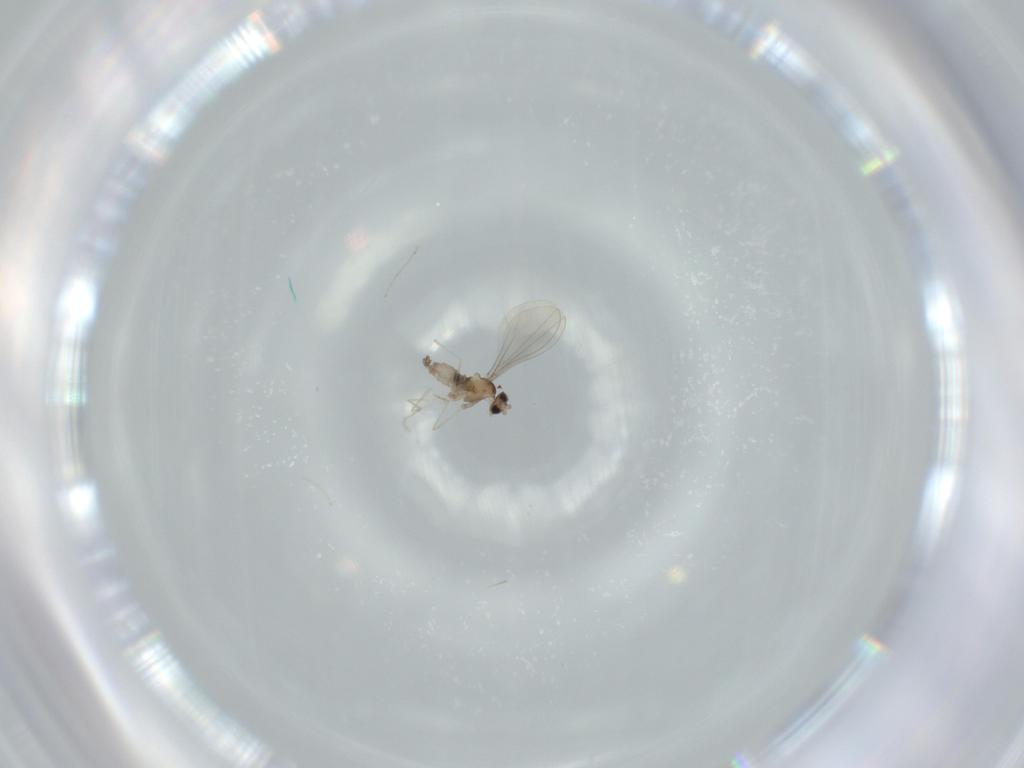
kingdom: Animalia
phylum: Arthropoda
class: Insecta
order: Diptera
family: Cecidomyiidae
